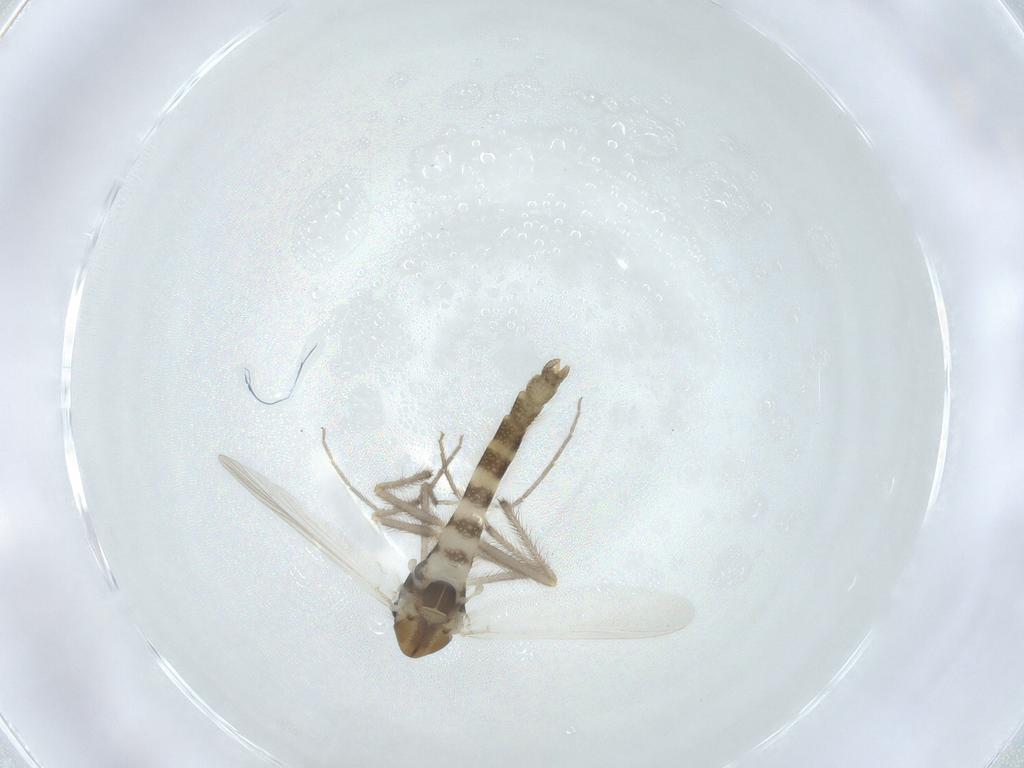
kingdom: Animalia
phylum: Arthropoda
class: Insecta
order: Diptera
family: Chironomidae
